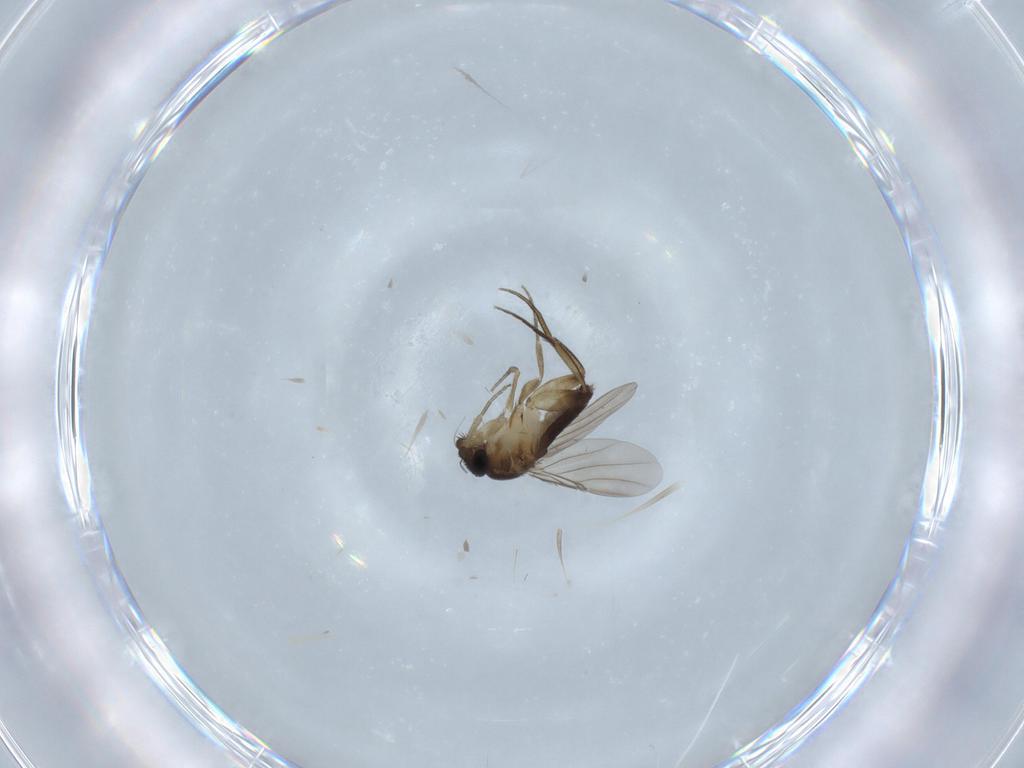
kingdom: Animalia
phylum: Arthropoda
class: Insecta
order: Diptera
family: Phoridae
